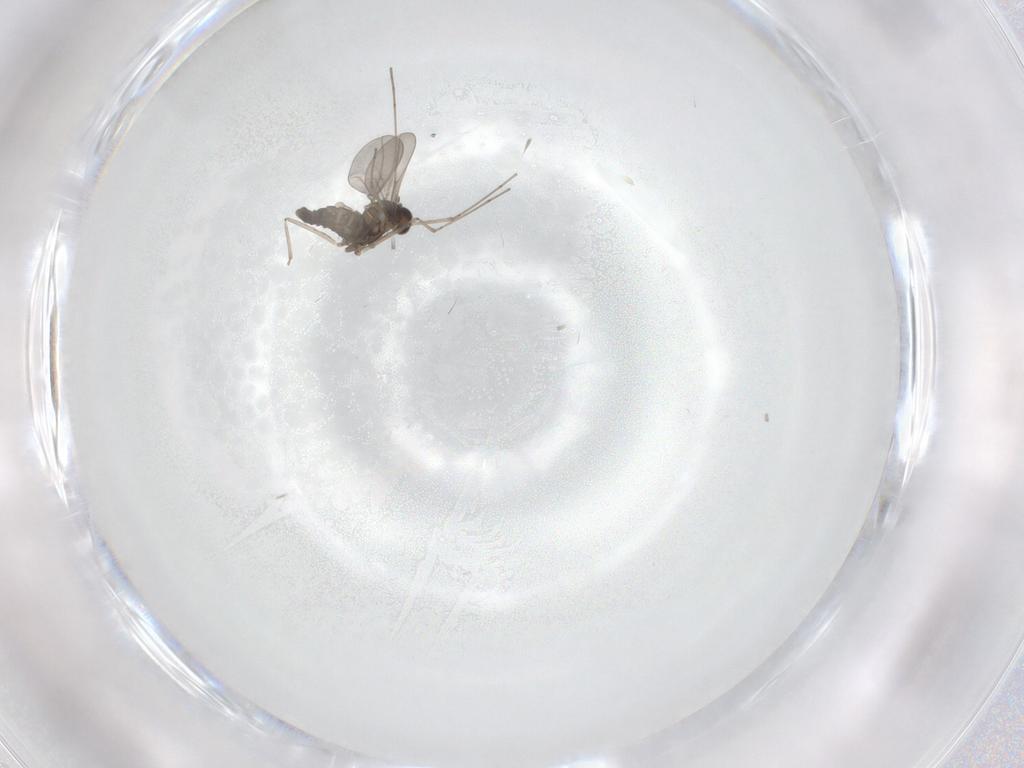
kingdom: Animalia
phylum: Arthropoda
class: Insecta
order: Diptera
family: Cecidomyiidae
